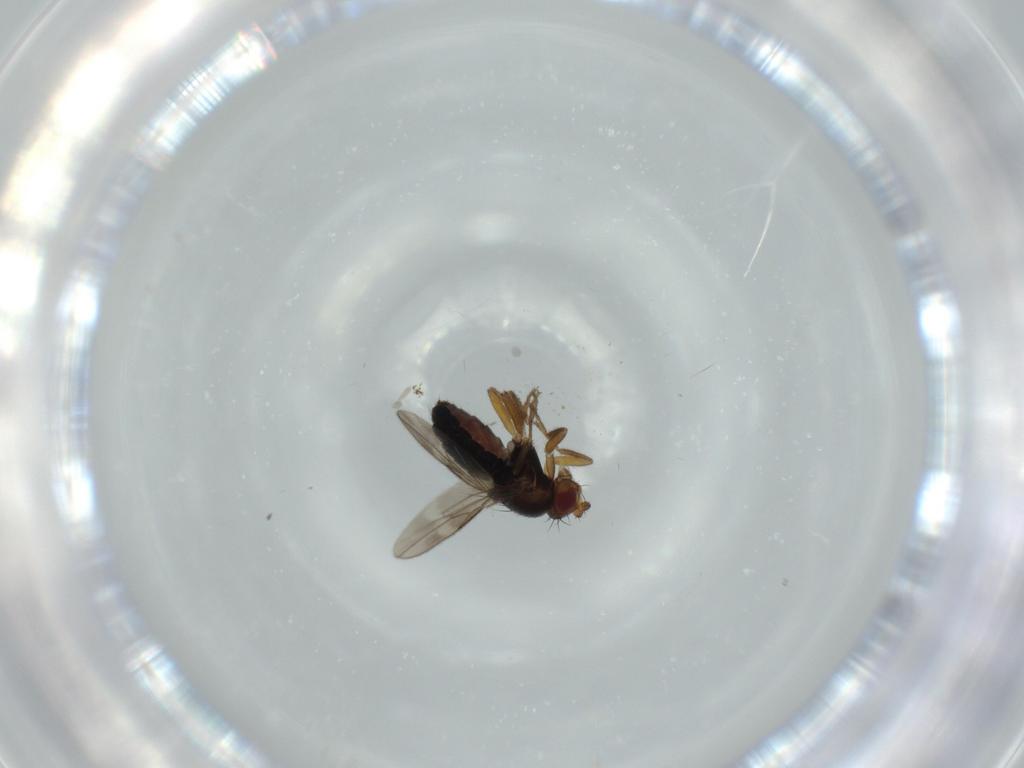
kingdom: Animalia
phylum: Arthropoda
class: Insecta
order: Diptera
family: Sphaeroceridae
